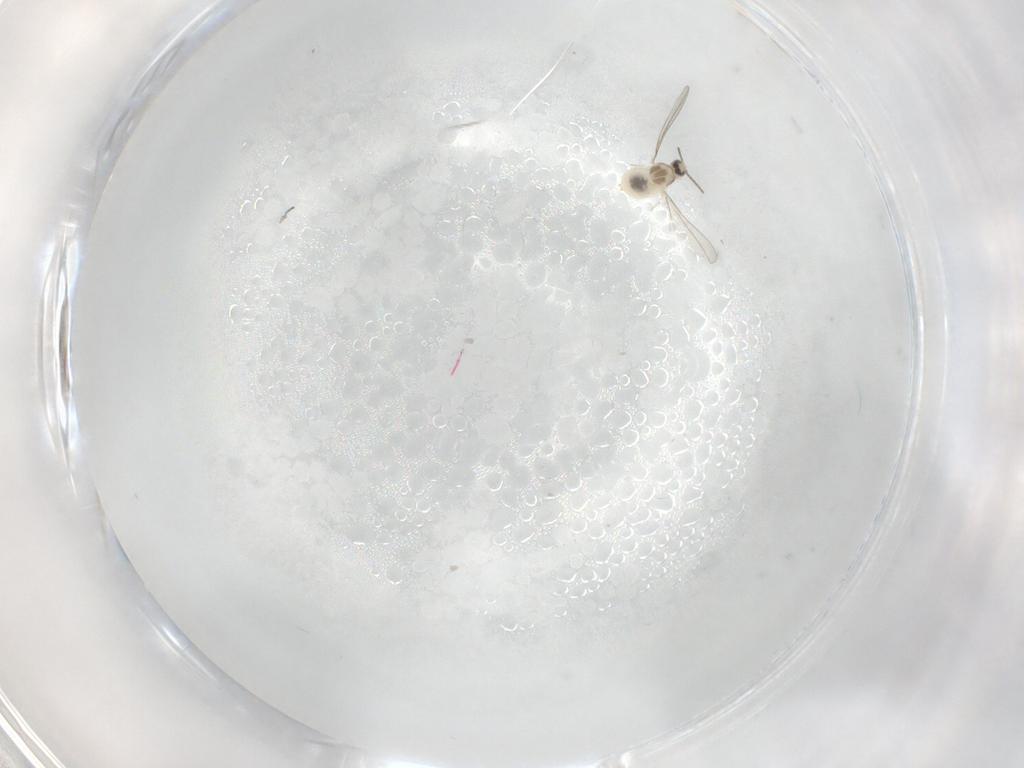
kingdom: Animalia
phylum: Arthropoda
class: Insecta
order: Diptera
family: Cecidomyiidae
